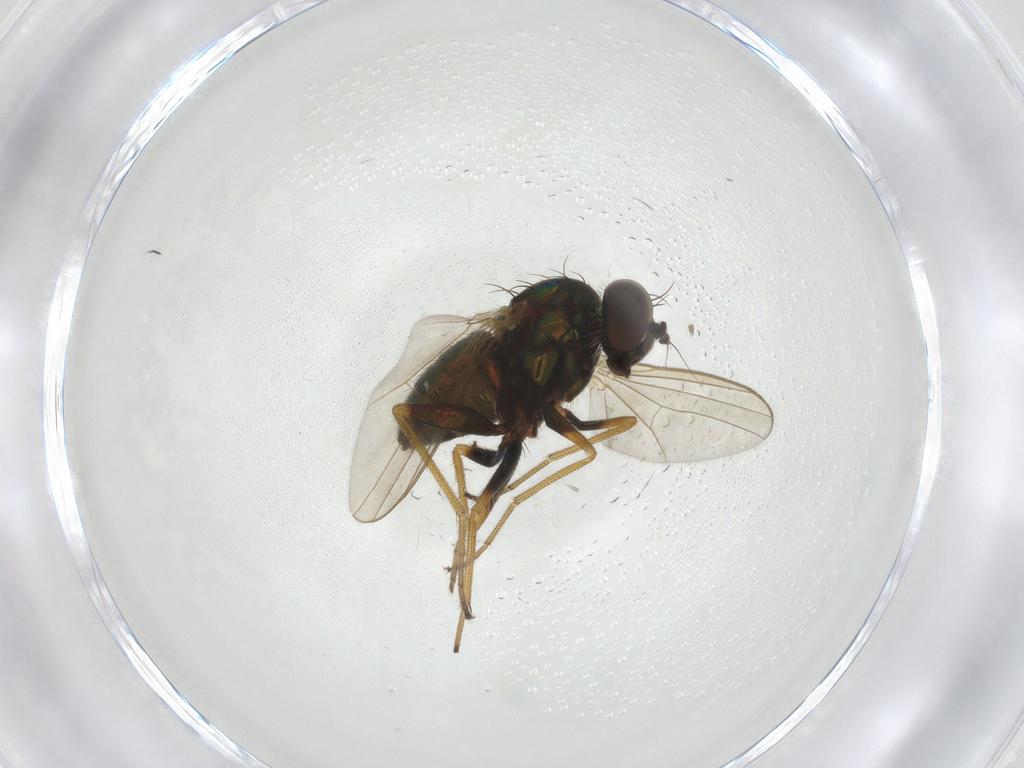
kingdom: Animalia
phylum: Arthropoda
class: Insecta
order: Diptera
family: Dolichopodidae
